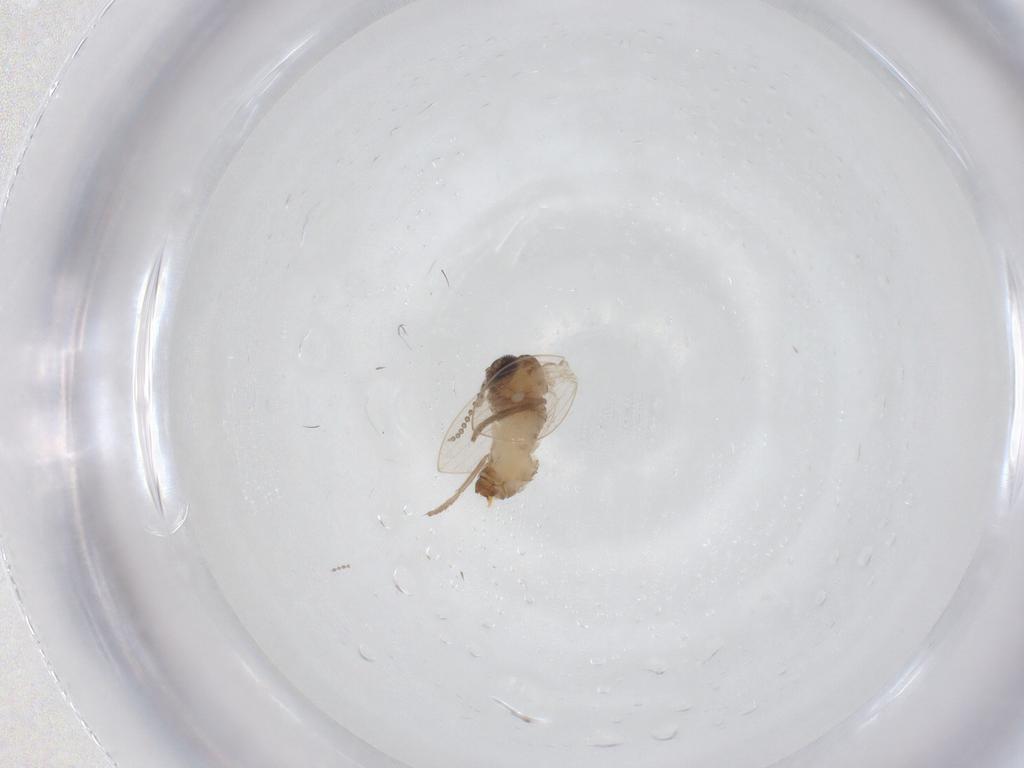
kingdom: Animalia
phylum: Arthropoda
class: Insecta
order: Diptera
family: Cecidomyiidae
